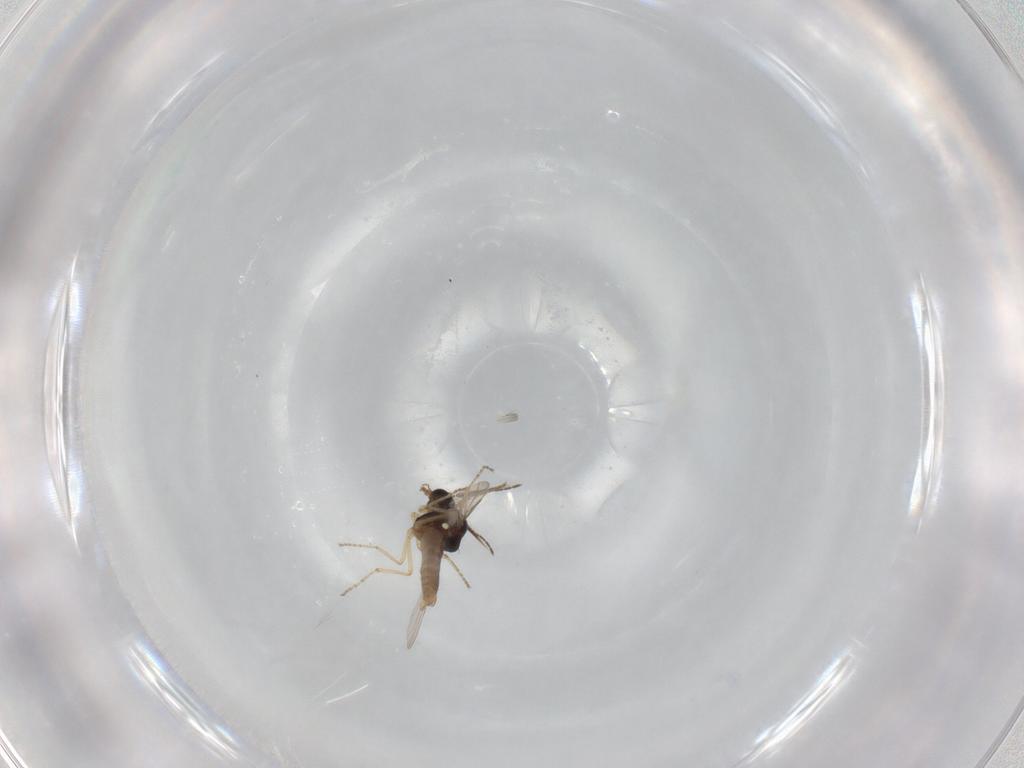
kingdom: Animalia
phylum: Arthropoda
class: Insecta
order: Diptera
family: Ceratopogonidae
